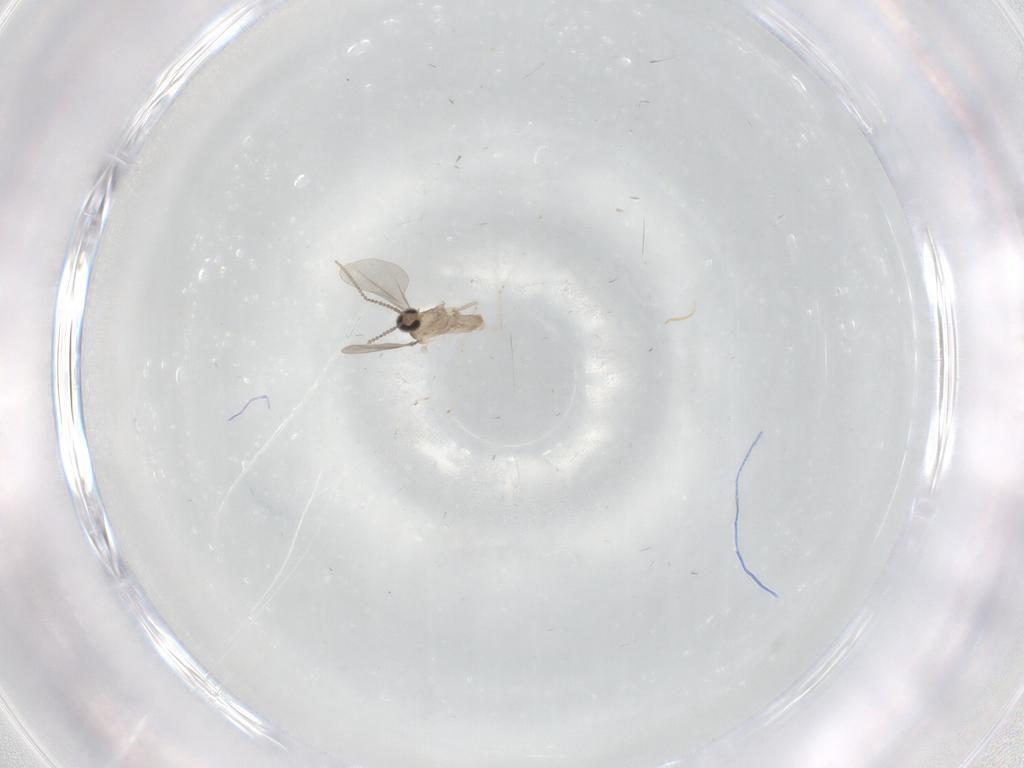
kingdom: Animalia
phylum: Arthropoda
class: Insecta
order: Diptera
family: Cecidomyiidae
